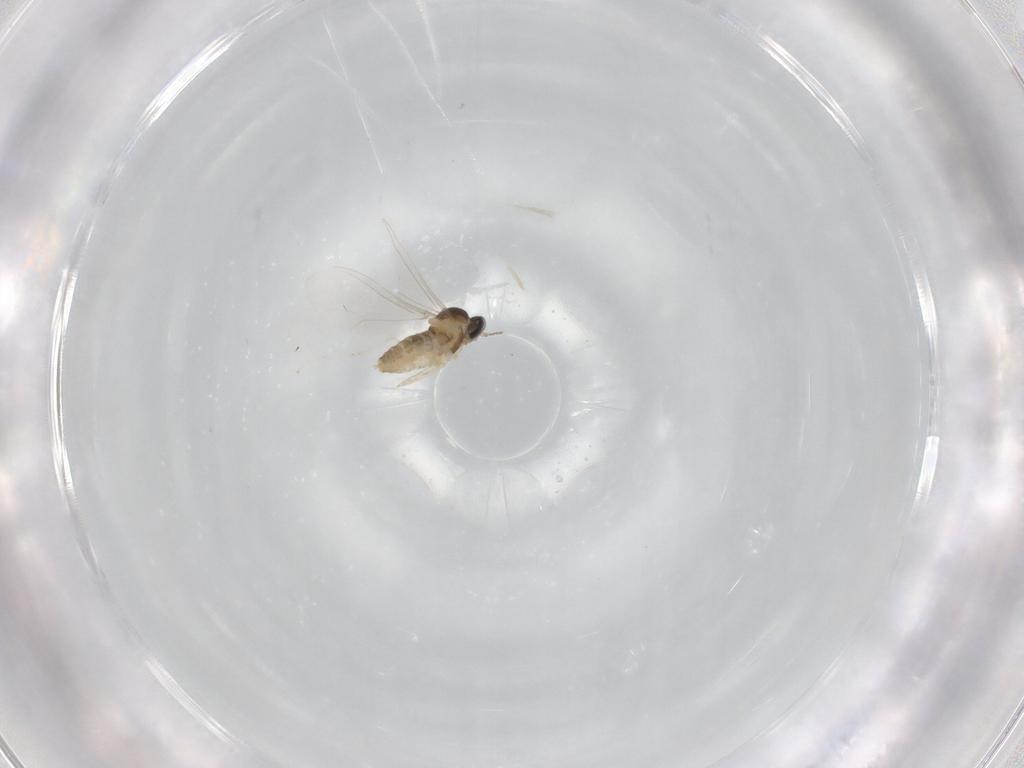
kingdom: Animalia
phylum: Arthropoda
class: Insecta
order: Diptera
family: Cecidomyiidae
